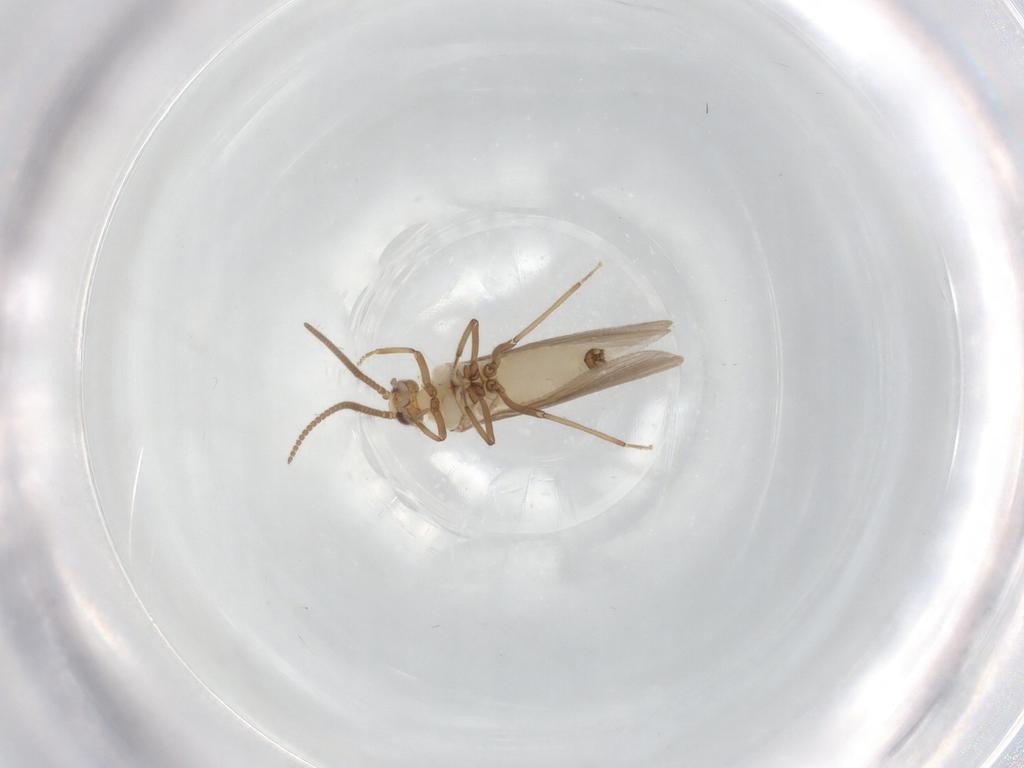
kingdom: Animalia
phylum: Arthropoda
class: Insecta
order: Neuroptera
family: Coniopterygidae
